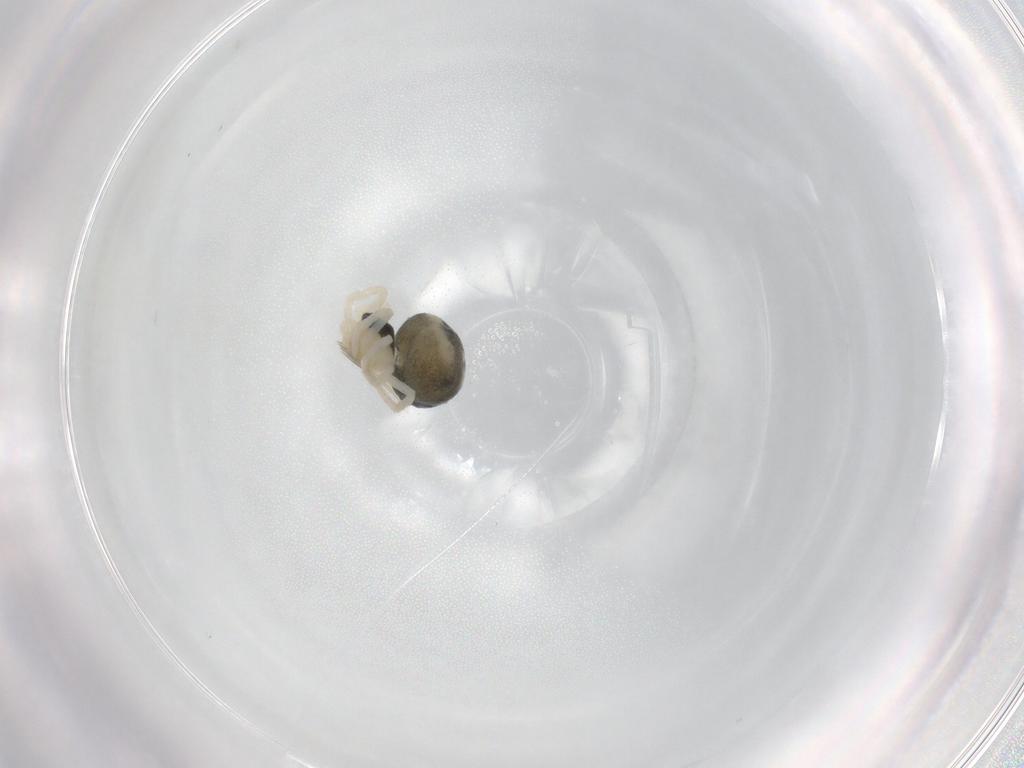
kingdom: Animalia
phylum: Arthropoda
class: Arachnida
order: Araneae
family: Theridiidae
